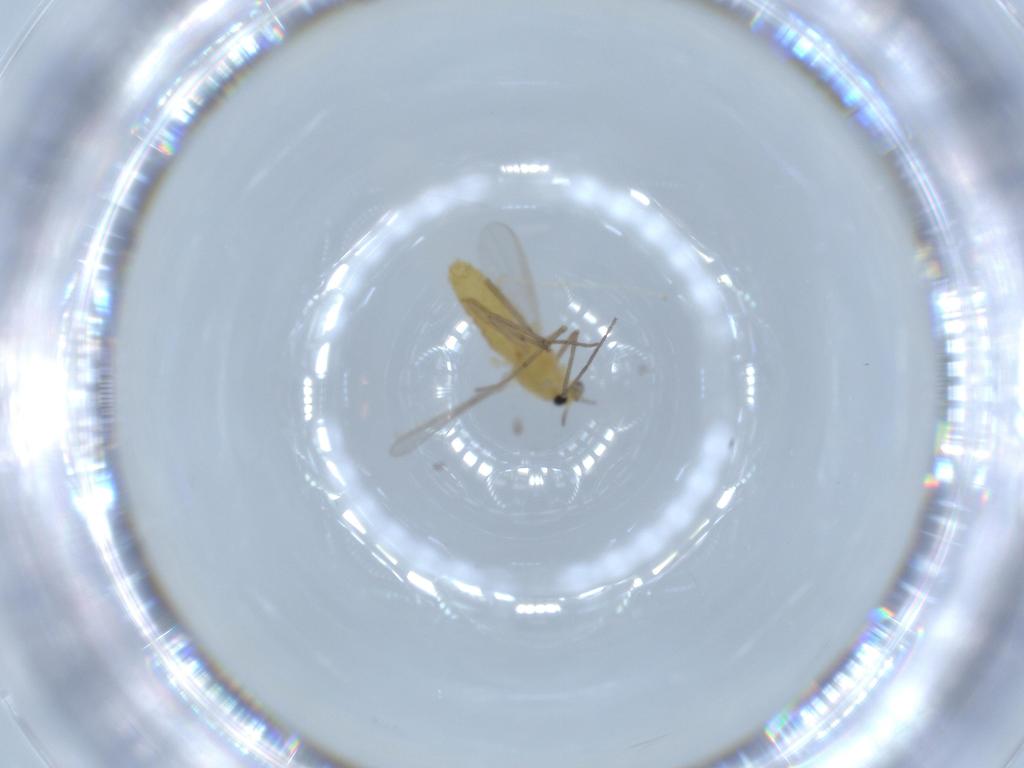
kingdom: Animalia
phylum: Arthropoda
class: Insecta
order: Diptera
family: Chironomidae
